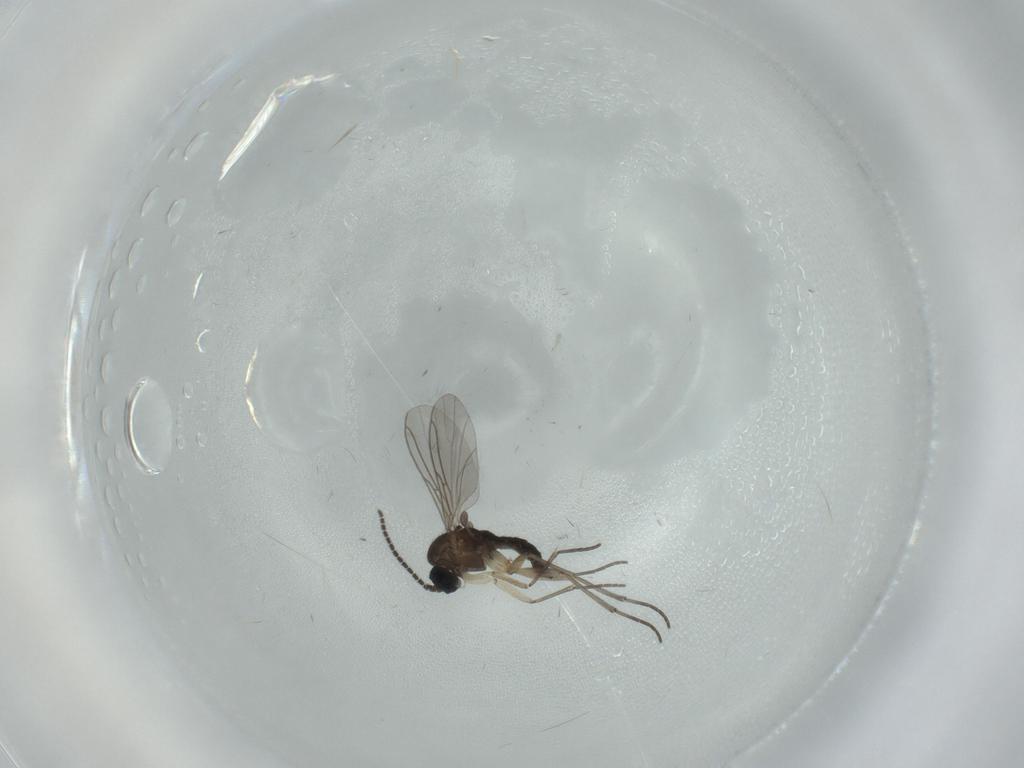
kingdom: Animalia
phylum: Arthropoda
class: Insecta
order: Diptera
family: Sciaridae
